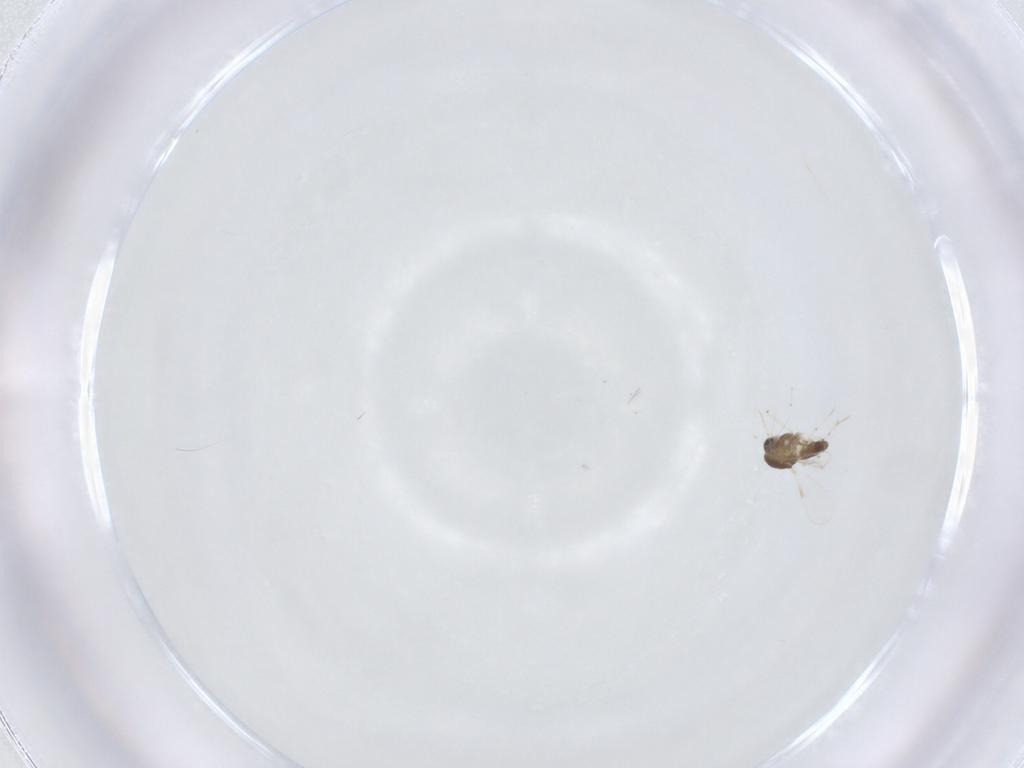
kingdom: Animalia
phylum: Arthropoda
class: Insecta
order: Diptera
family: Chironomidae
